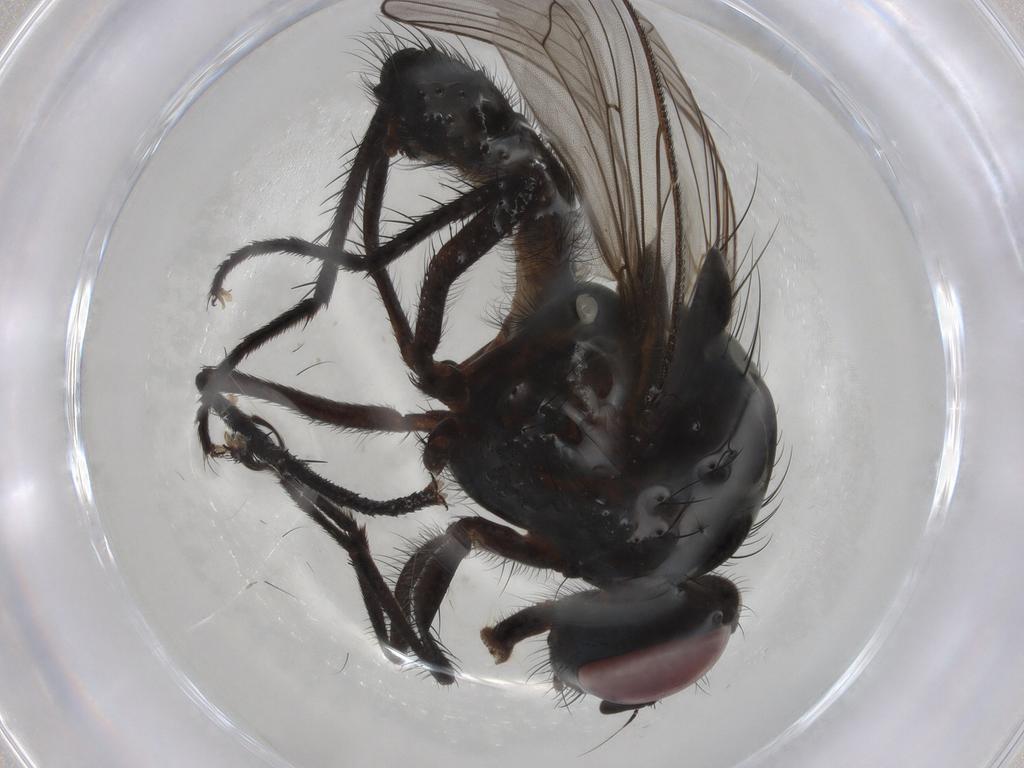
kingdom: Animalia
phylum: Arthropoda
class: Insecta
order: Diptera
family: Anthomyiidae
